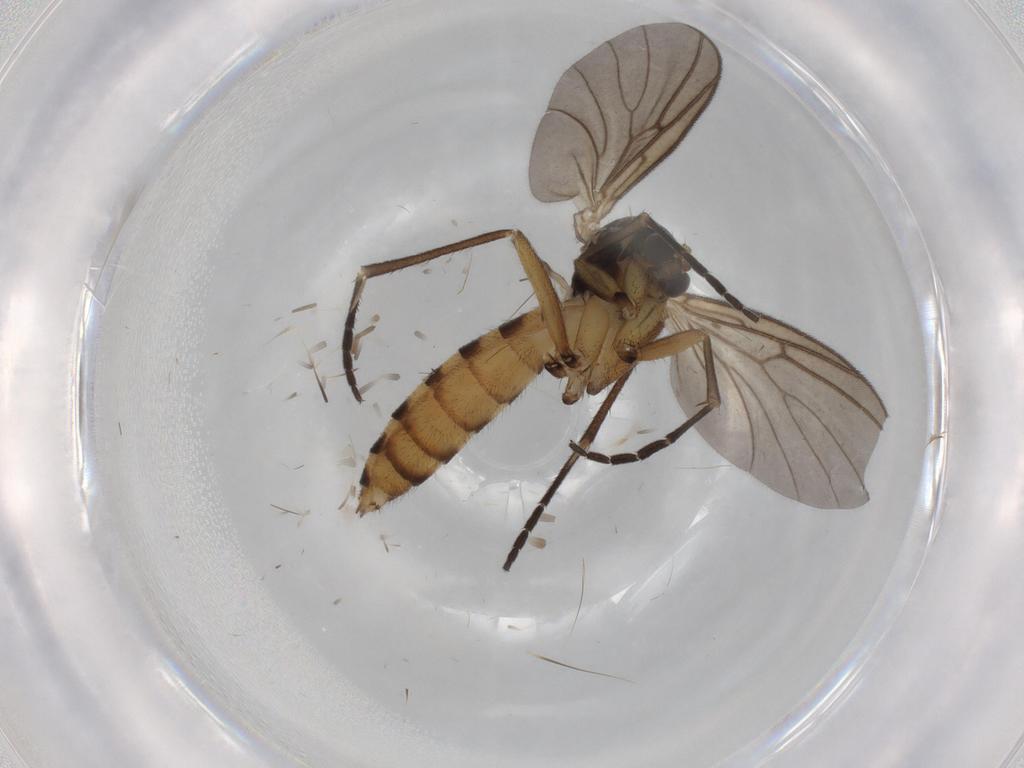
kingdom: Animalia
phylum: Arthropoda
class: Insecta
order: Diptera
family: Mycetophilidae
